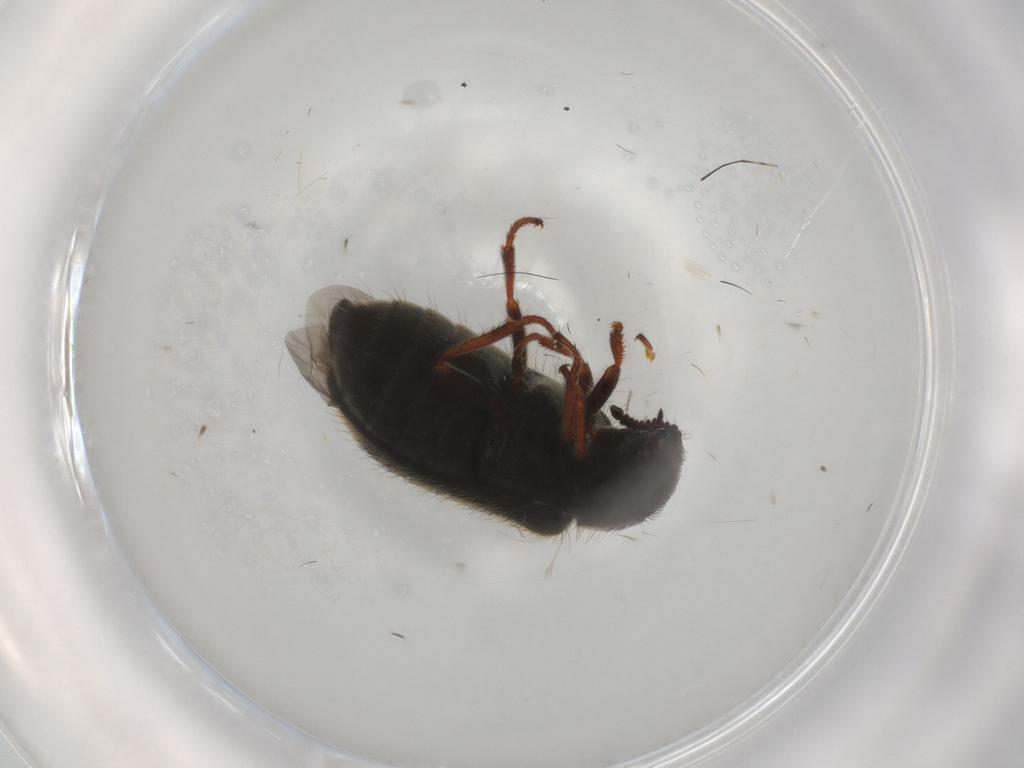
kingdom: Animalia
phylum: Arthropoda
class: Insecta
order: Coleoptera
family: Melyridae
